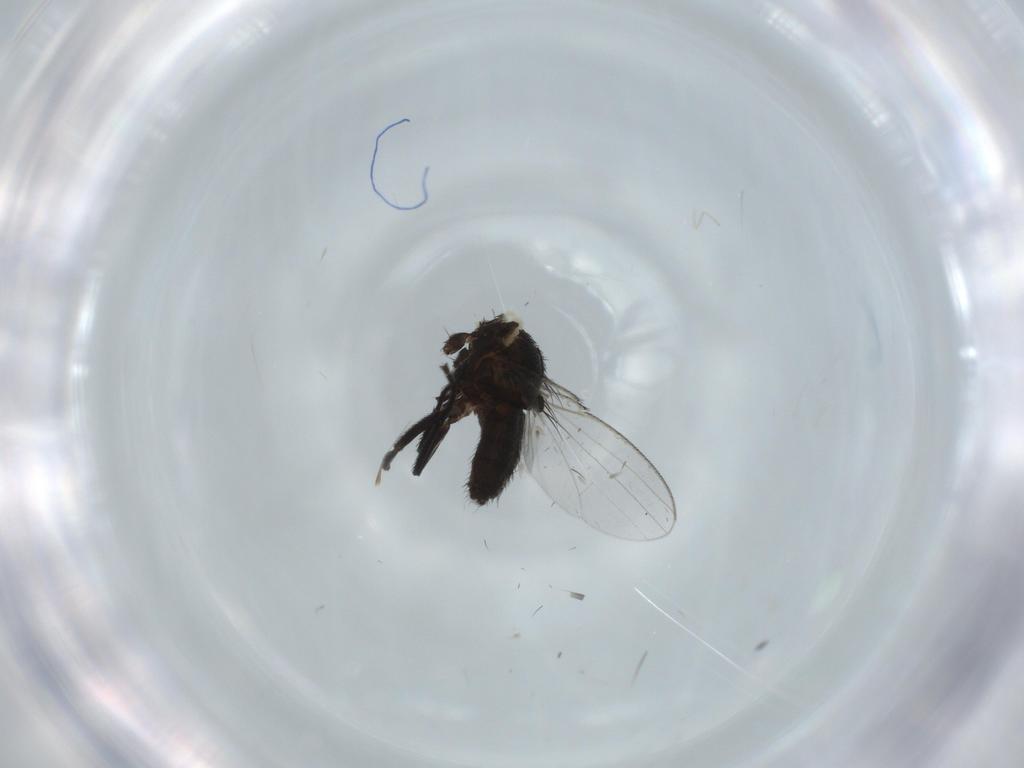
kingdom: Animalia
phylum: Arthropoda
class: Insecta
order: Diptera
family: Milichiidae
